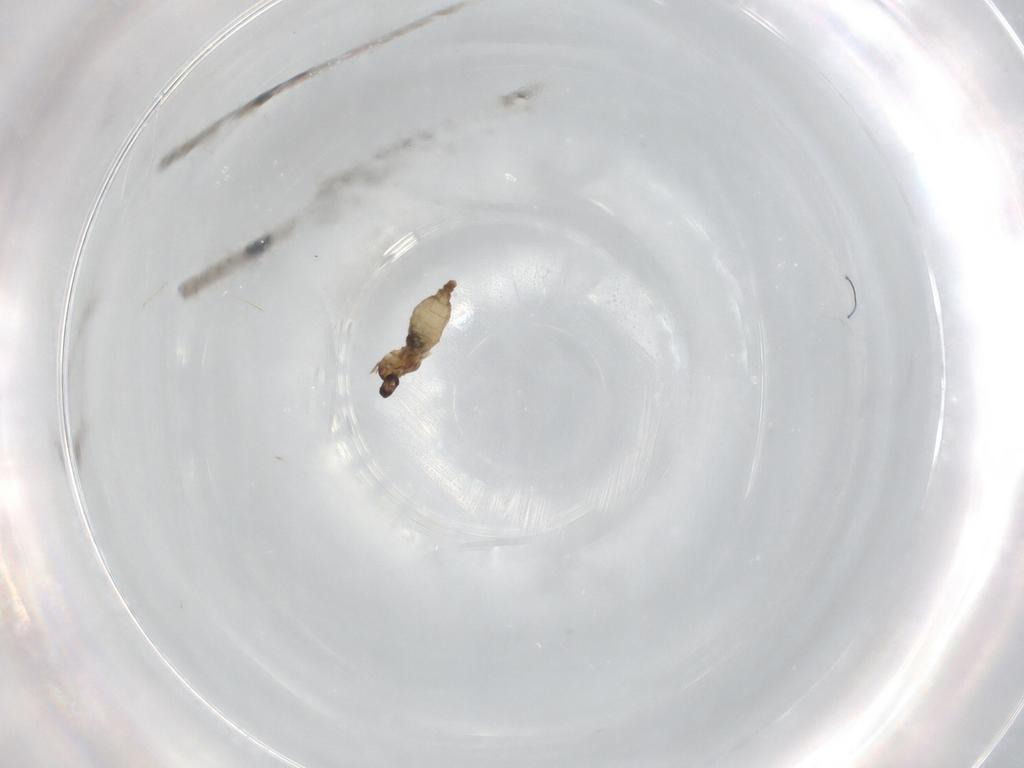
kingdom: Animalia
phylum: Arthropoda
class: Insecta
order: Diptera
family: Cecidomyiidae
